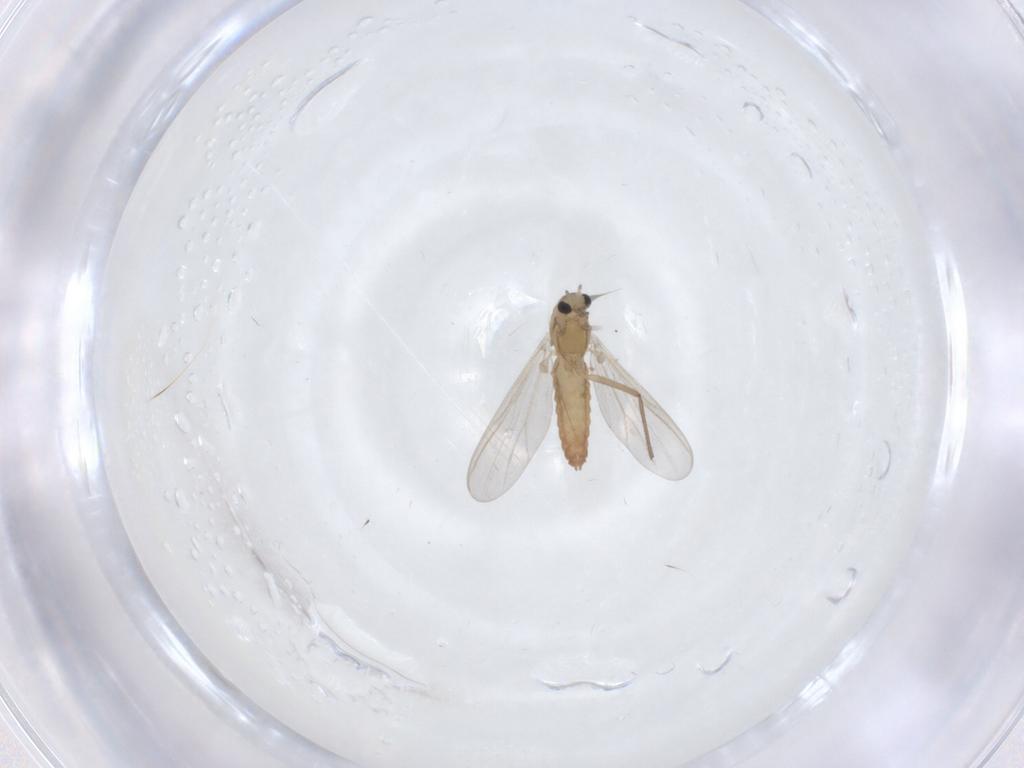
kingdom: Animalia
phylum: Arthropoda
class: Insecta
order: Diptera
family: Chironomidae
